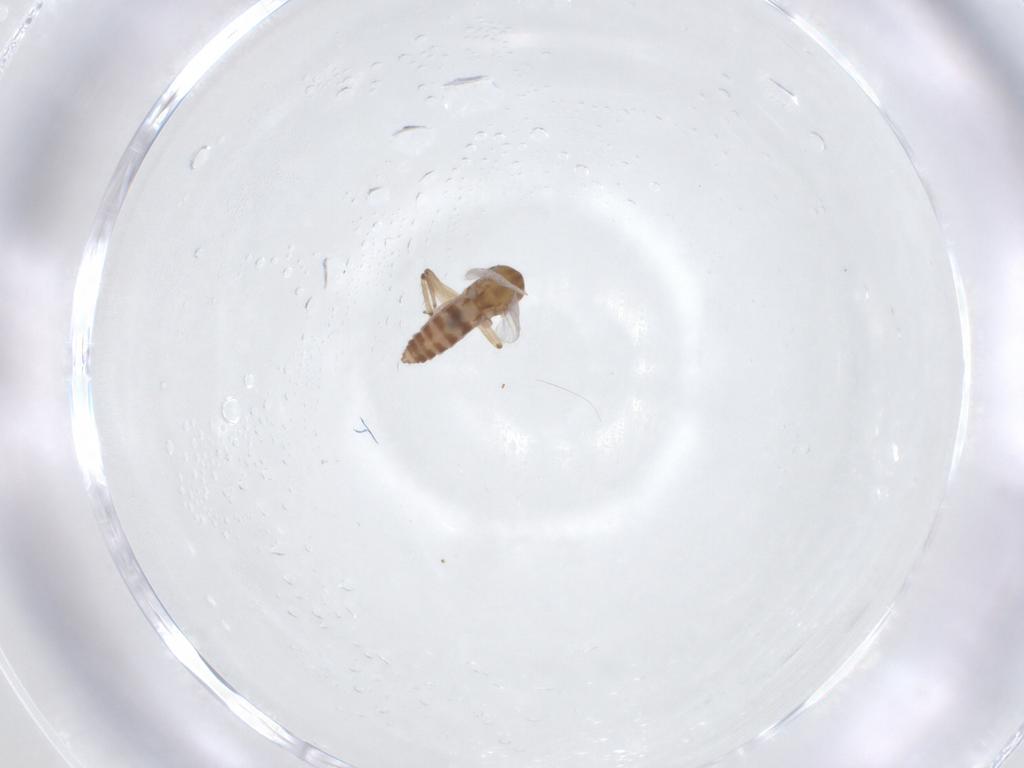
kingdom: Animalia
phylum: Arthropoda
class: Insecta
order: Diptera
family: Ceratopogonidae
